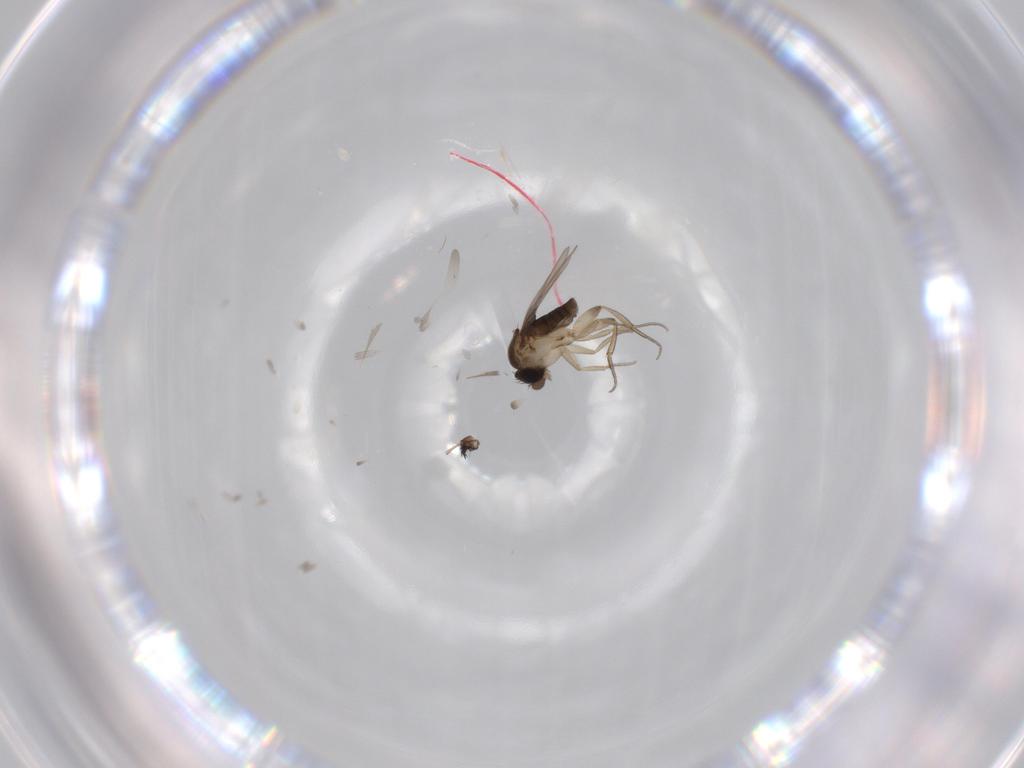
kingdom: Animalia
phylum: Arthropoda
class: Insecta
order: Diptera
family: Phoridae
